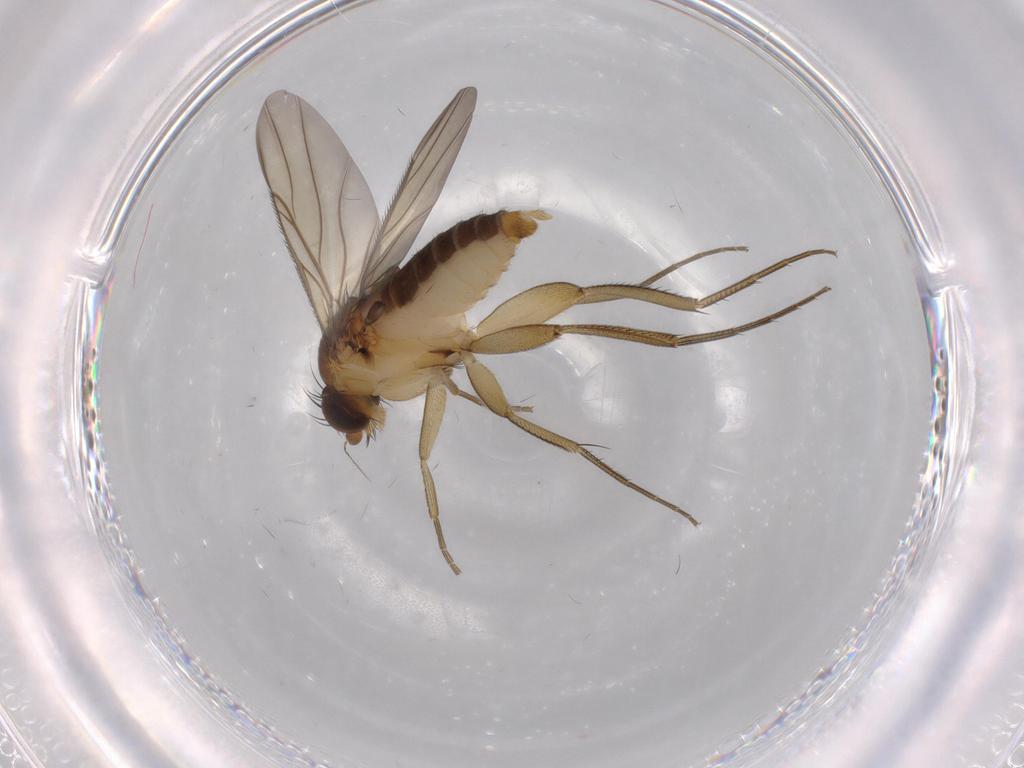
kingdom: Animalia
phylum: Arthropoda
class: Insecta
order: Diptera
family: Phoridae
